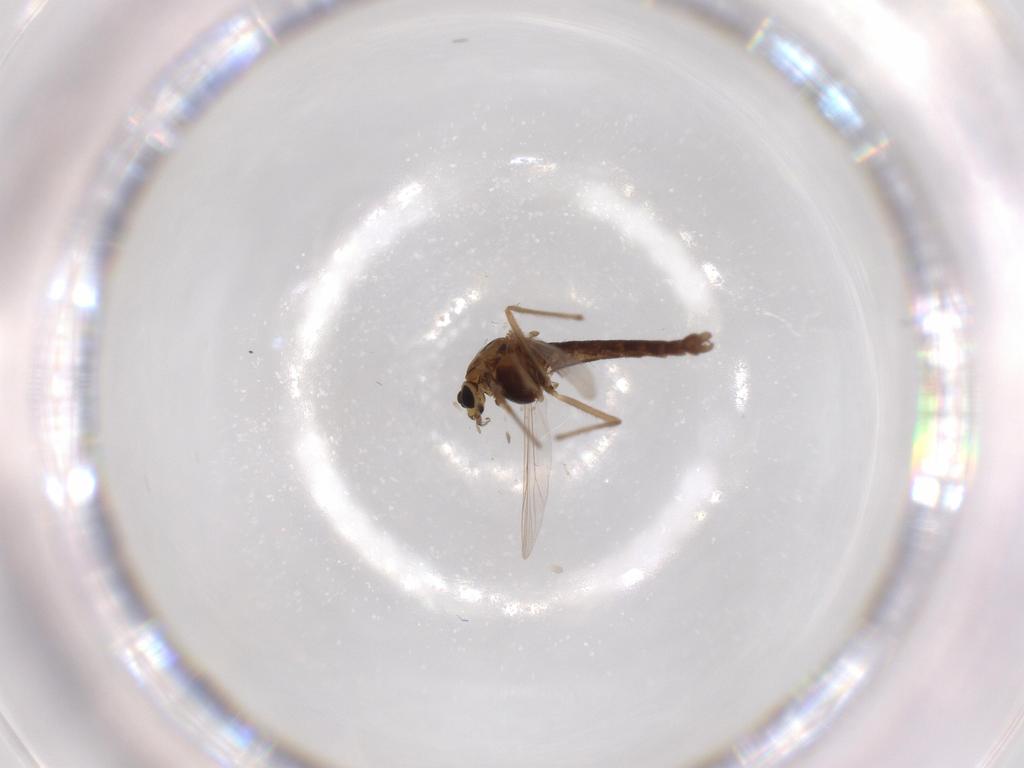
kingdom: Animalia
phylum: Arthropoda
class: Insecta
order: Diptera
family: Chironomidae
